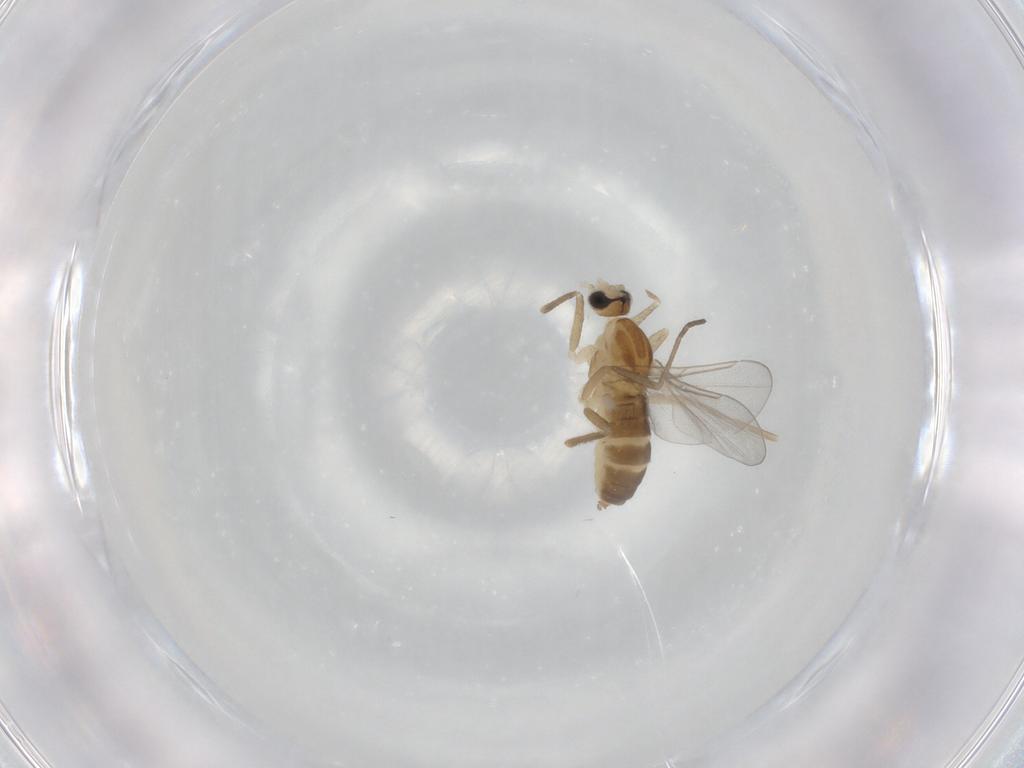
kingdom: Animalia
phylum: Arthropoda
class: Insecta
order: Diptera
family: Cecidomyiidae
